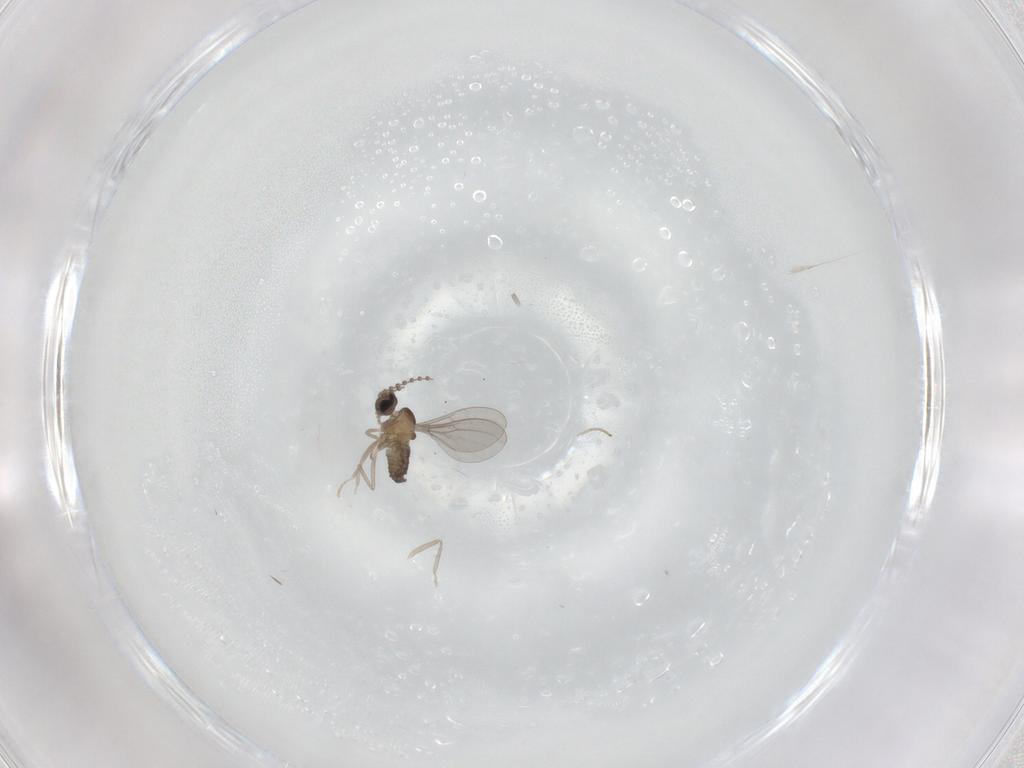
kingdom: Animalia
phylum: Arthropoda
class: Insecta
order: Diptera
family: Cecidomyiidae
